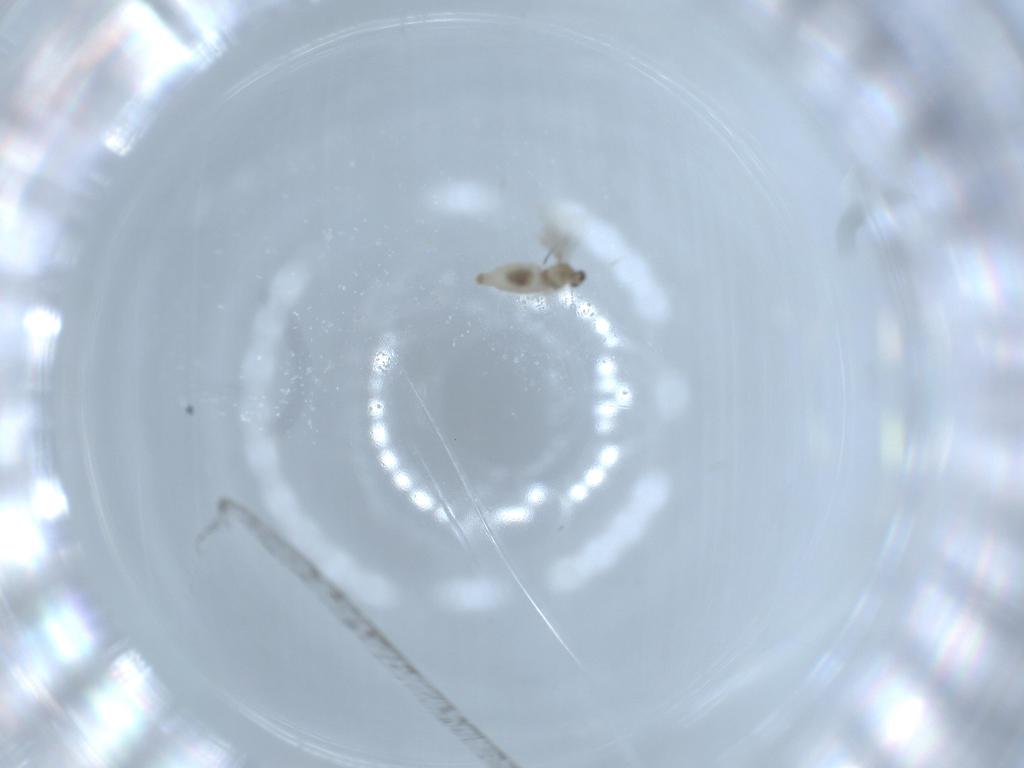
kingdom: Animalia
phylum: Arthropoda
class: Insecta
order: Diptera
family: Cecidomyiidae
